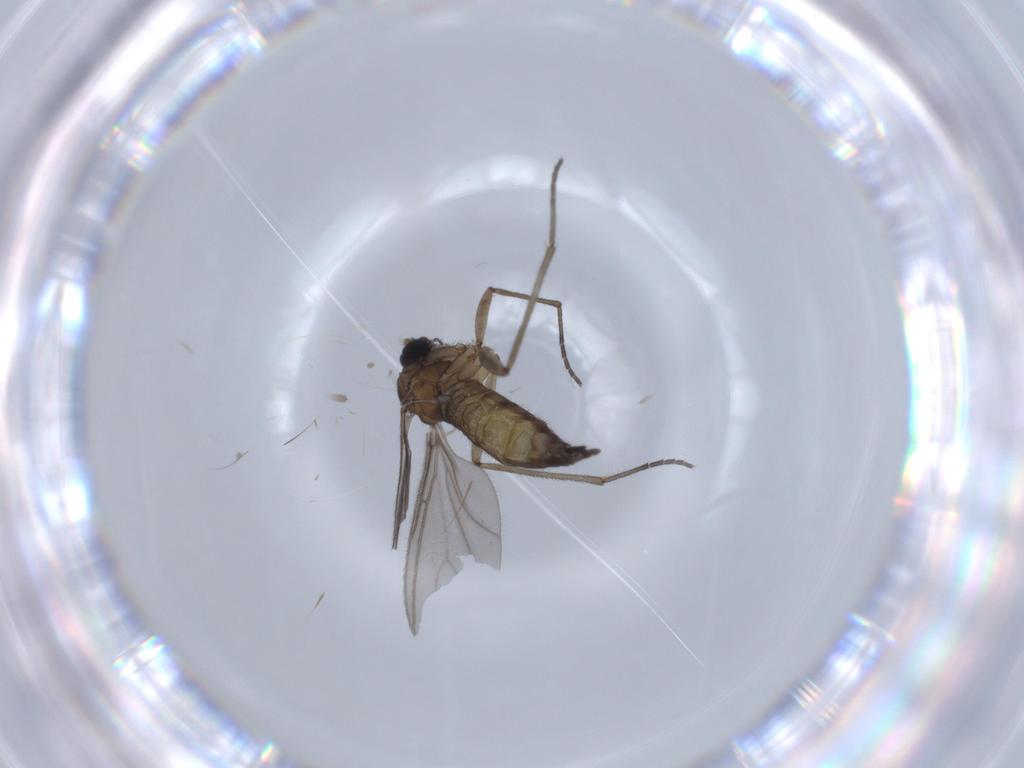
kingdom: Animalia
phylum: Arthropoda
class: Insecta
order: Diptera
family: Sciaridae
